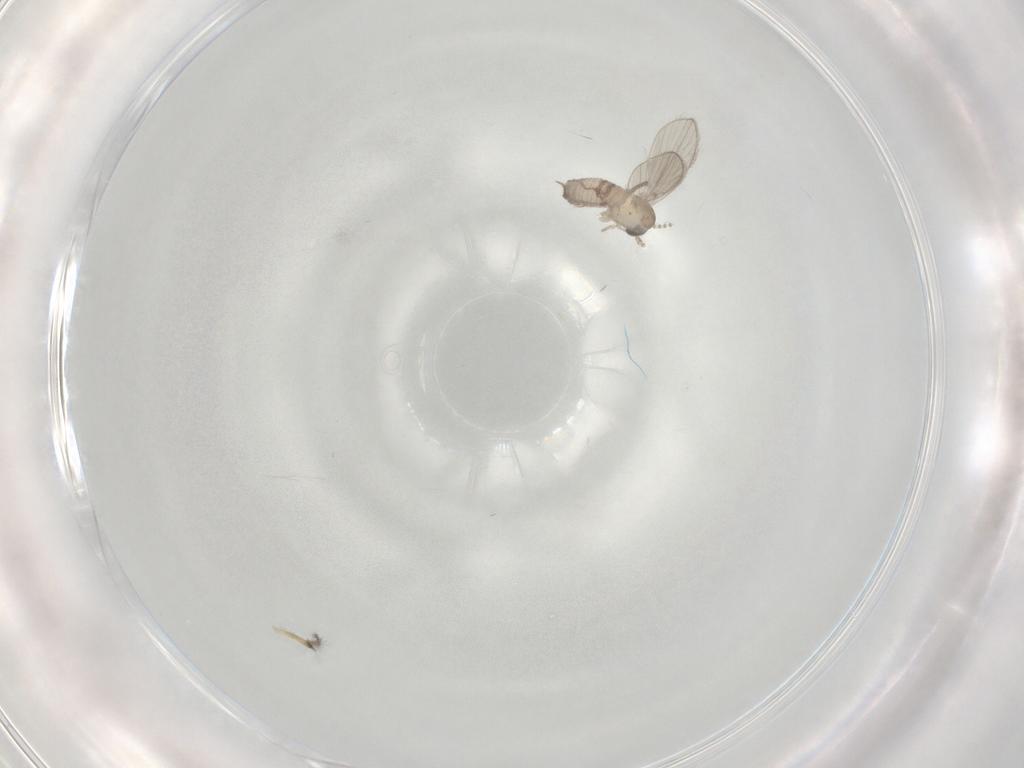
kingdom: Animalia
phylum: Arthropoda
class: Insecta
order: Diptera
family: Psychodidae
